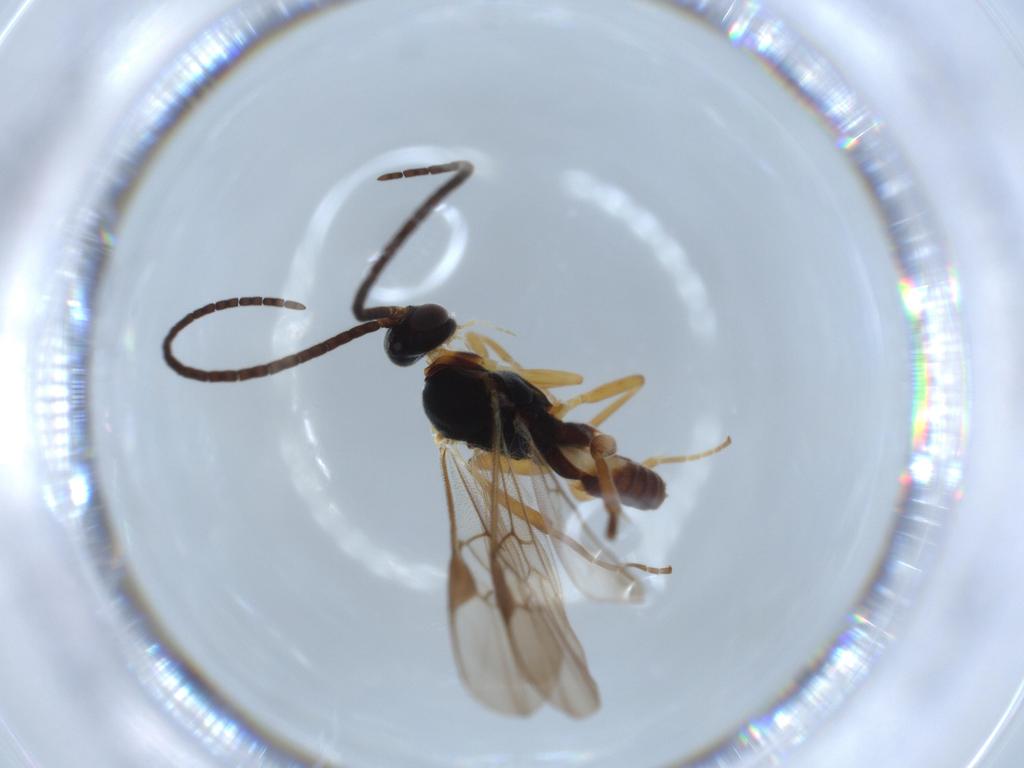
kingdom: Animalia
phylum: Arthropoda
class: Insecta
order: Lepidoptera
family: Tortricidae
